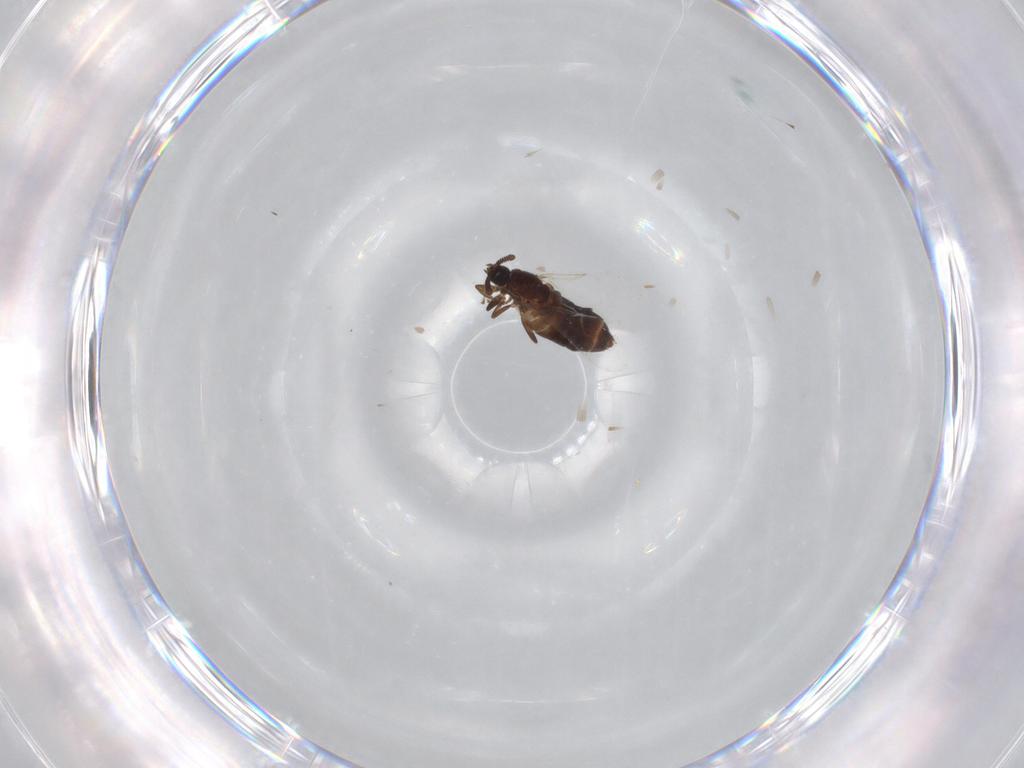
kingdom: Animalia
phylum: Arthropoda
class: Insecta
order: Diptera
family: Scatopsidae
